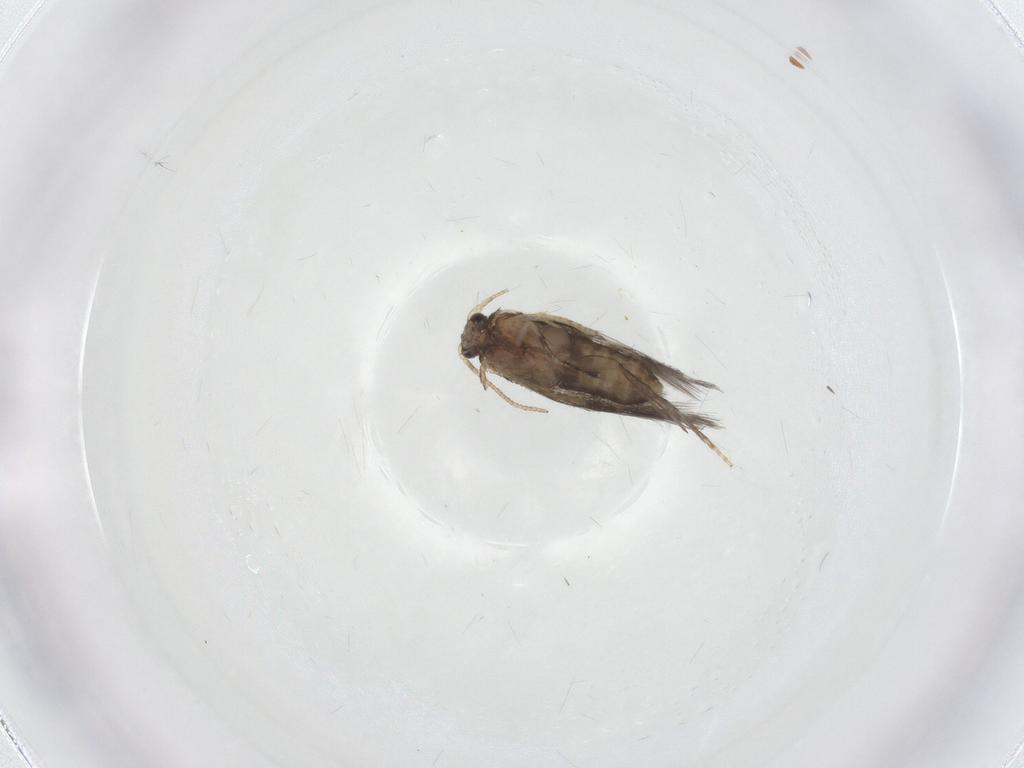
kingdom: Animalia
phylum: Arthropoda
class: Insecta
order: Lepidoptera
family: Nepticulidae
